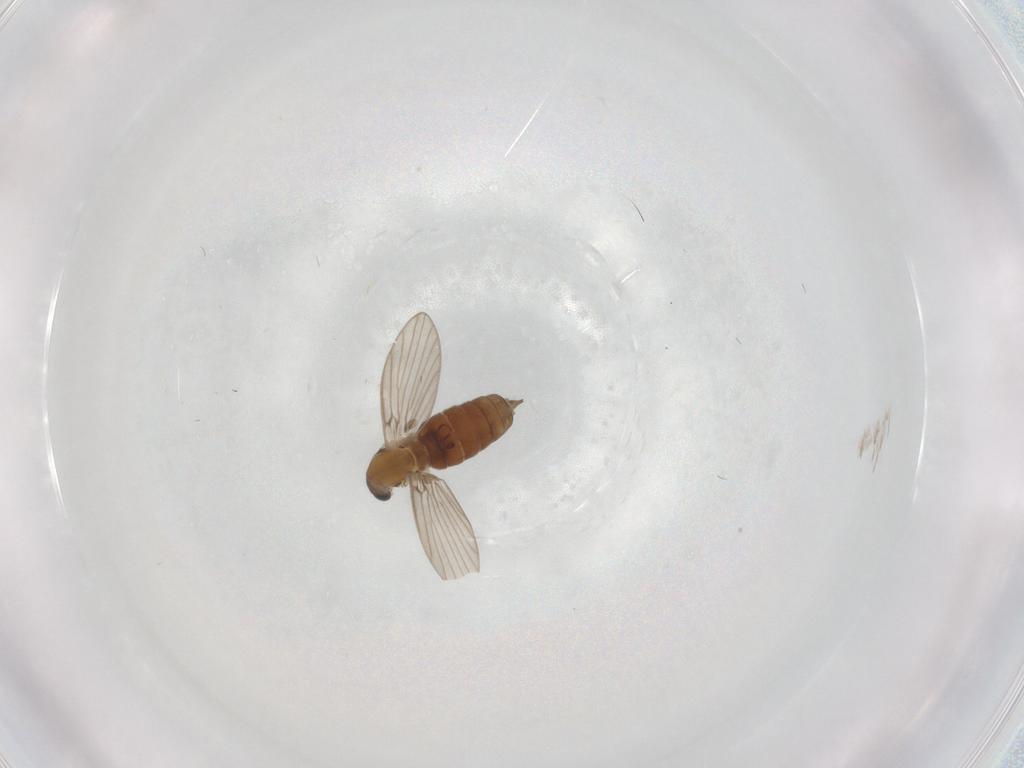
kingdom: Animalia
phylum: Arthropoda
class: Insecta
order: Diptera
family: Psychodidae
